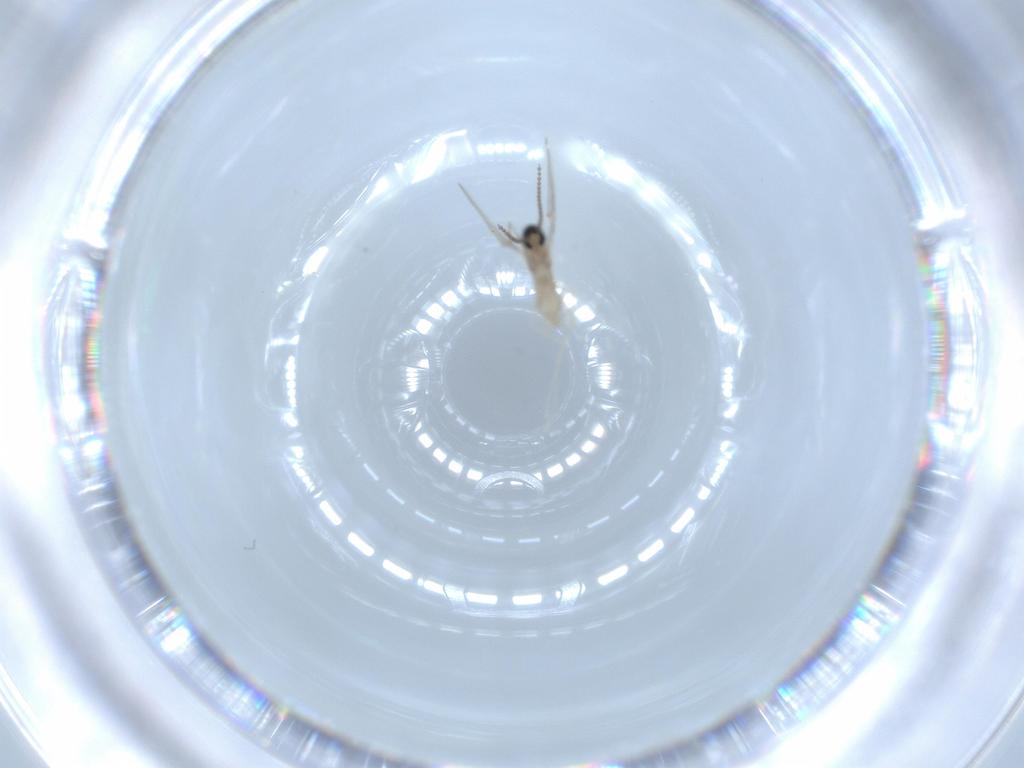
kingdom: Animalia
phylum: Arthropoda
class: Insecta
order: Diptera
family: Cecidomyiidae
